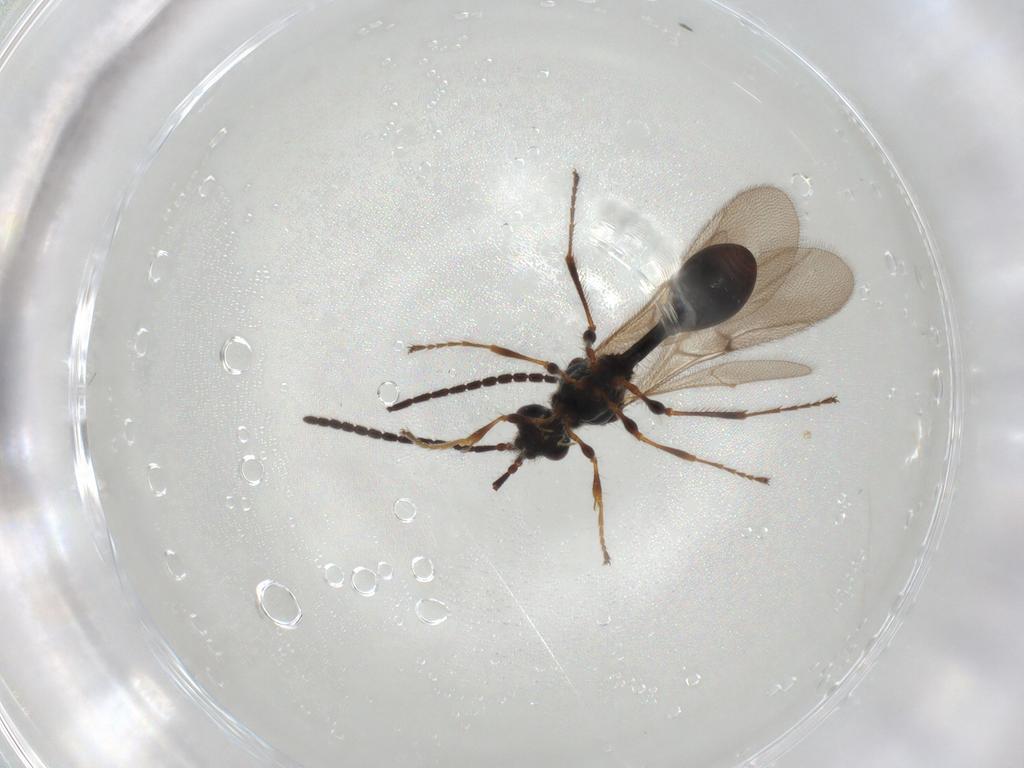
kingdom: Animalia
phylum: Arthropoda
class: Insecta
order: Hymenoptera
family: Diapriidae
